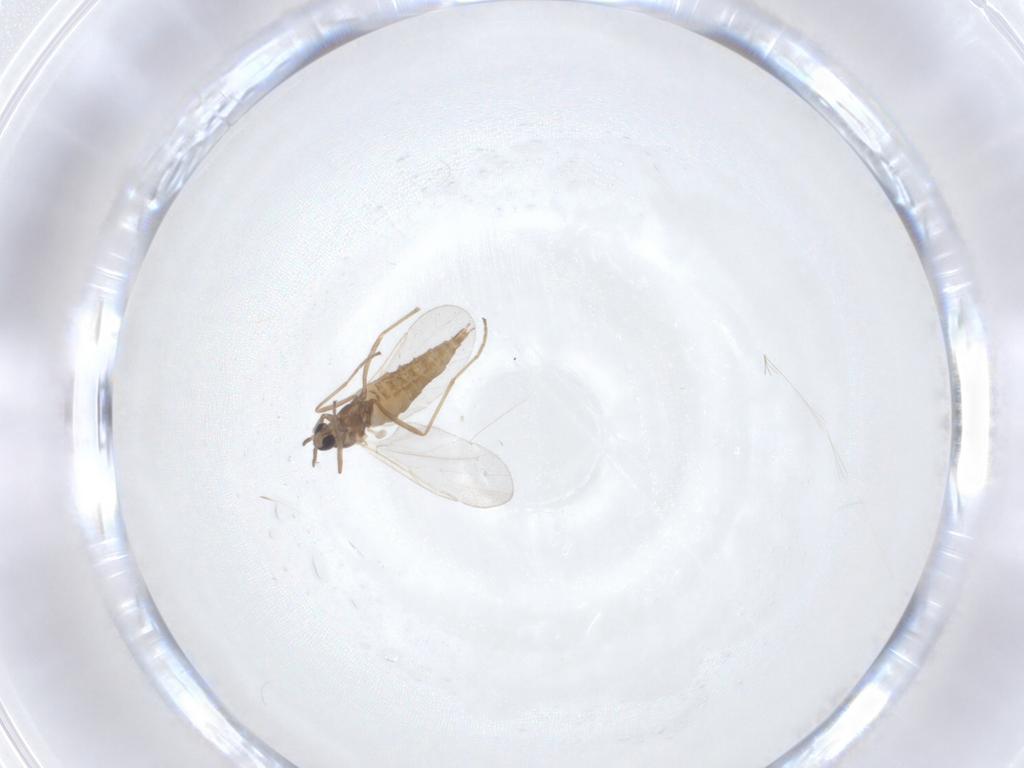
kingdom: Animalia
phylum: Arthropoda
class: Insecta
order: Diptera
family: Cecidomyiidae
